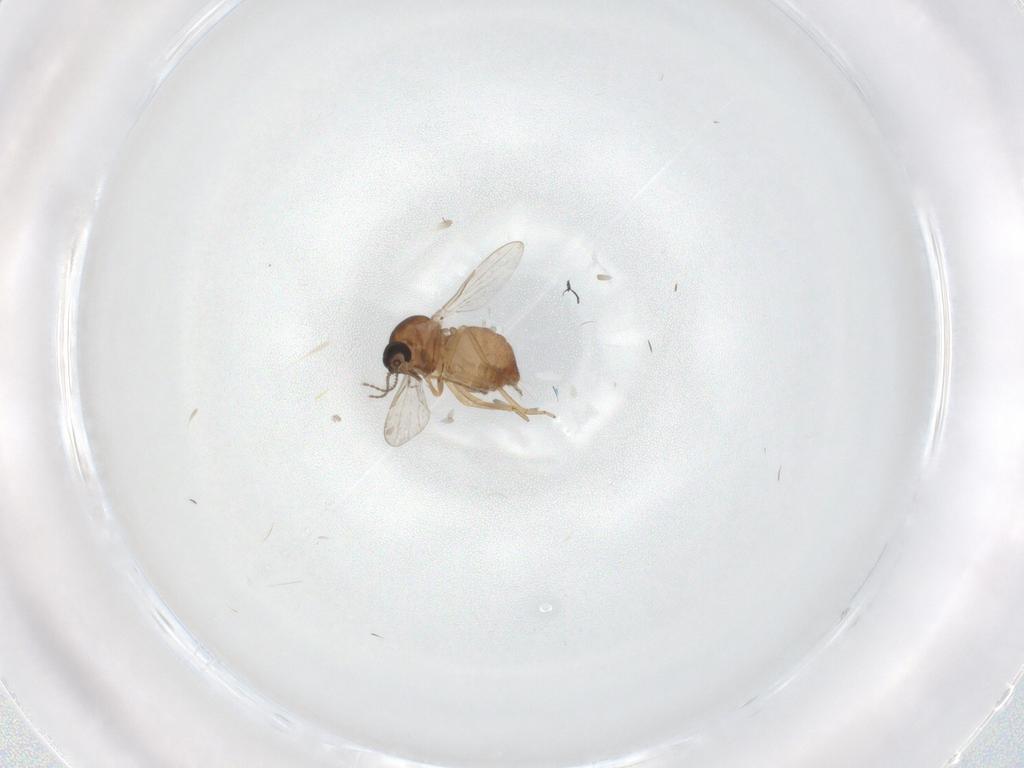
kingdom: Animalia
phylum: Arthropoda
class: Insecta
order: Diptera
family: Ceratopogonidae
